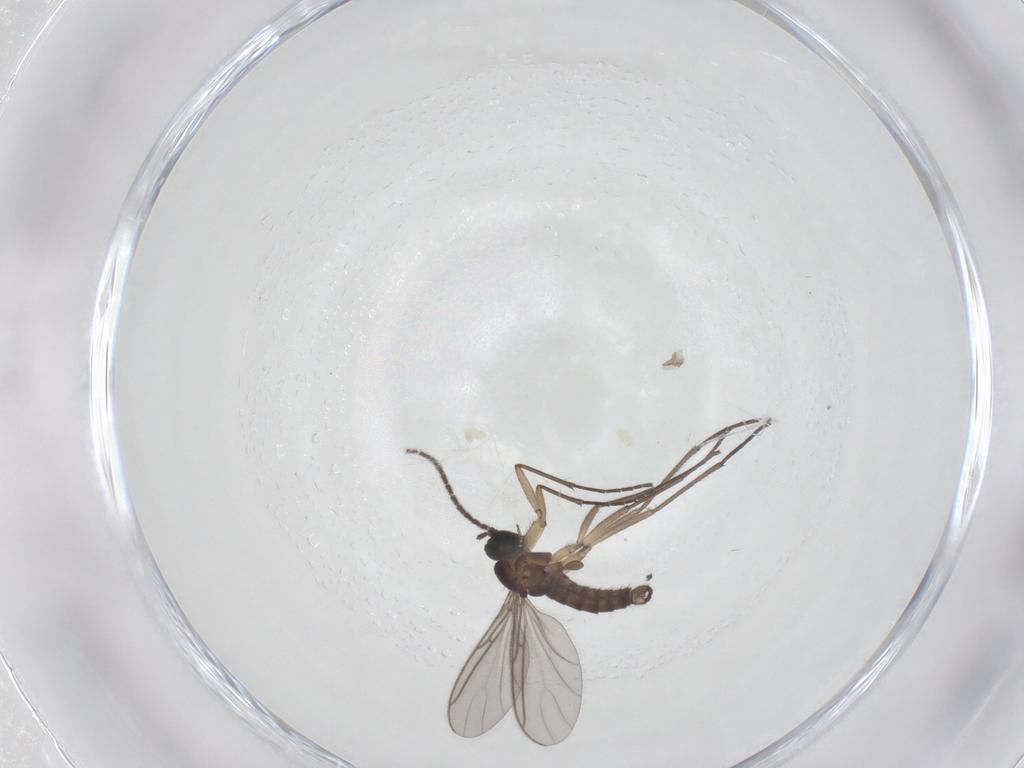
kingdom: Animalia
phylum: Arthropoda
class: Insecta
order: Diptera
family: Sciaridae
